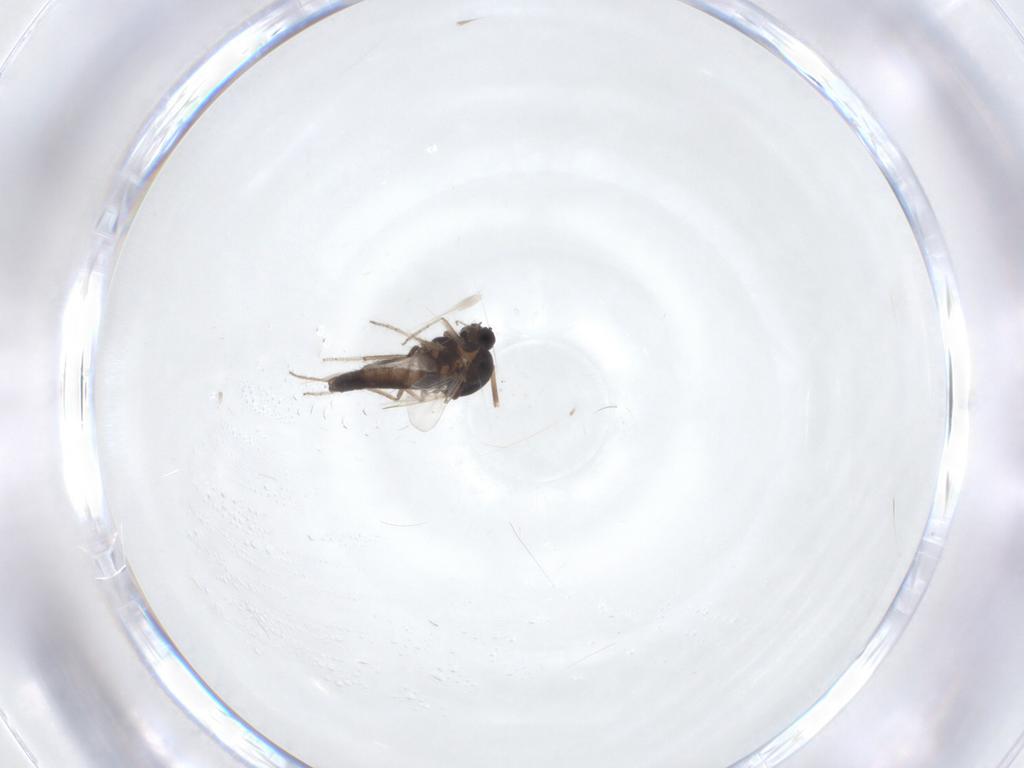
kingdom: Animalia
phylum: Arthropoda
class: Insecta
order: Diptera
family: Ceratopogonidae
